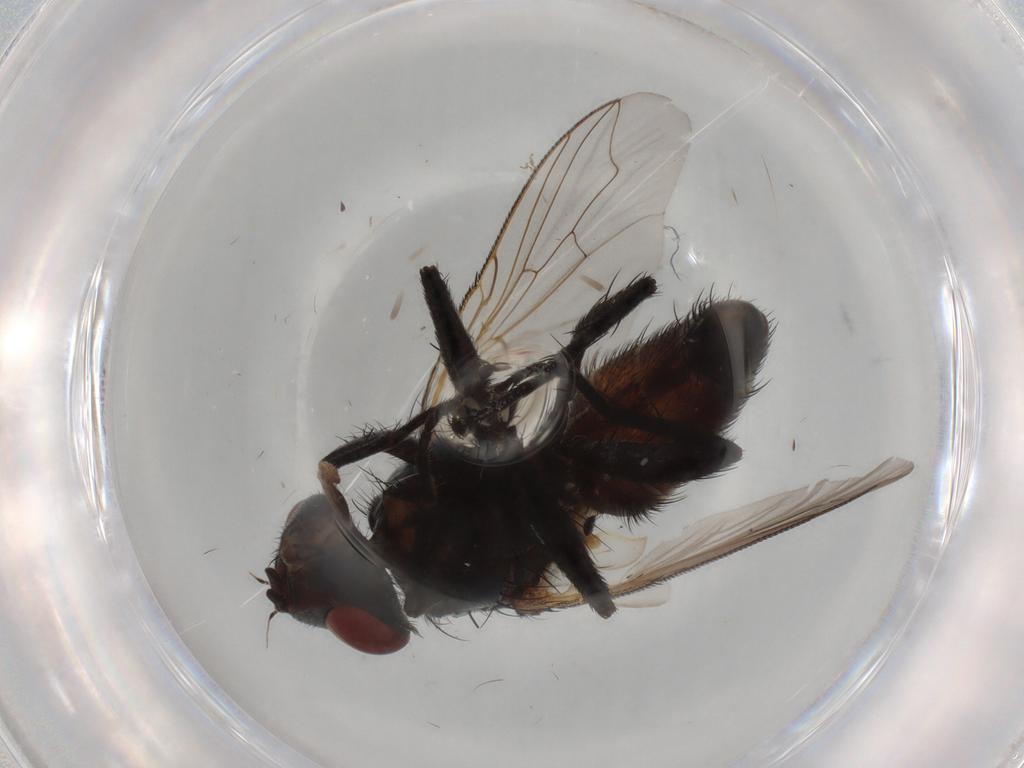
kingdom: Animalia
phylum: Arthropoda
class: Insecta
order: Diptera
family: Sarcophagidae
